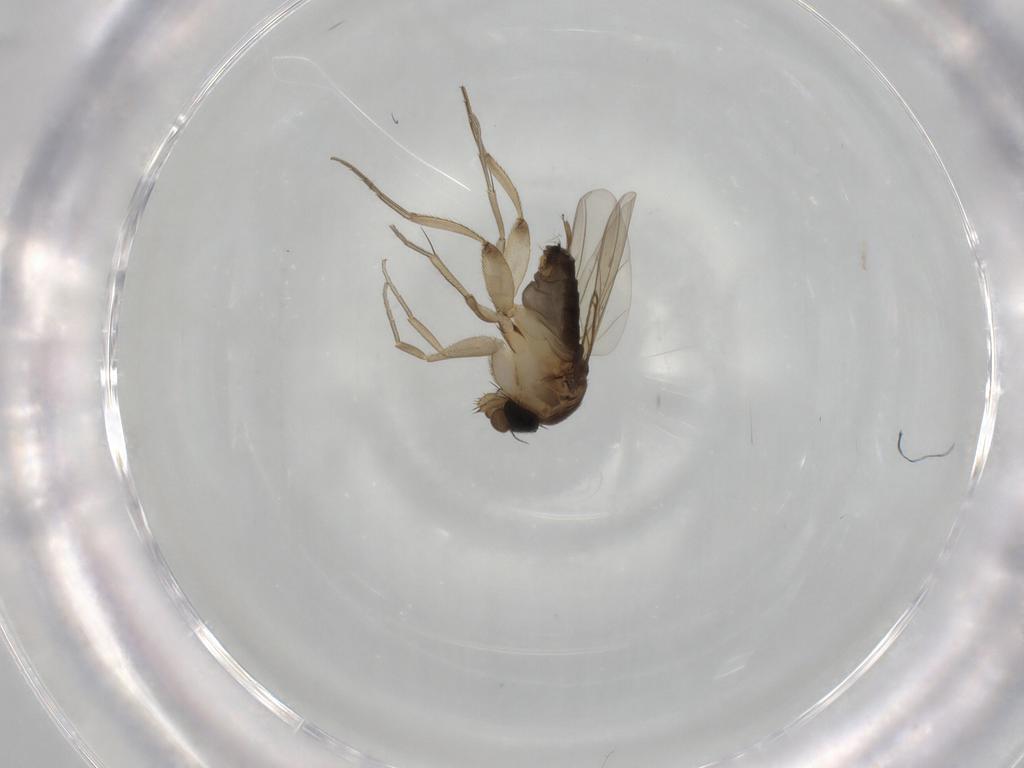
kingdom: Animalia
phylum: Arthropoda
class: Insecta
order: Diptera
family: Phoridae
